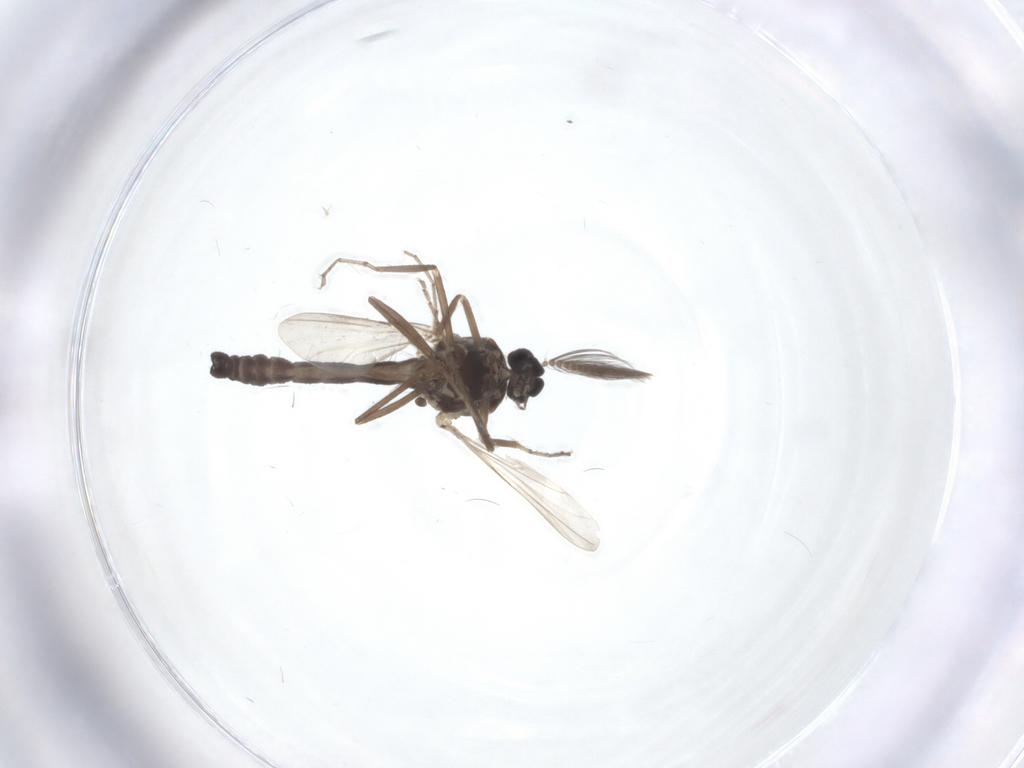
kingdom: Animalia
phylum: Arthropoda
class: Insecta
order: Diptera
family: Ceratopogonidae
